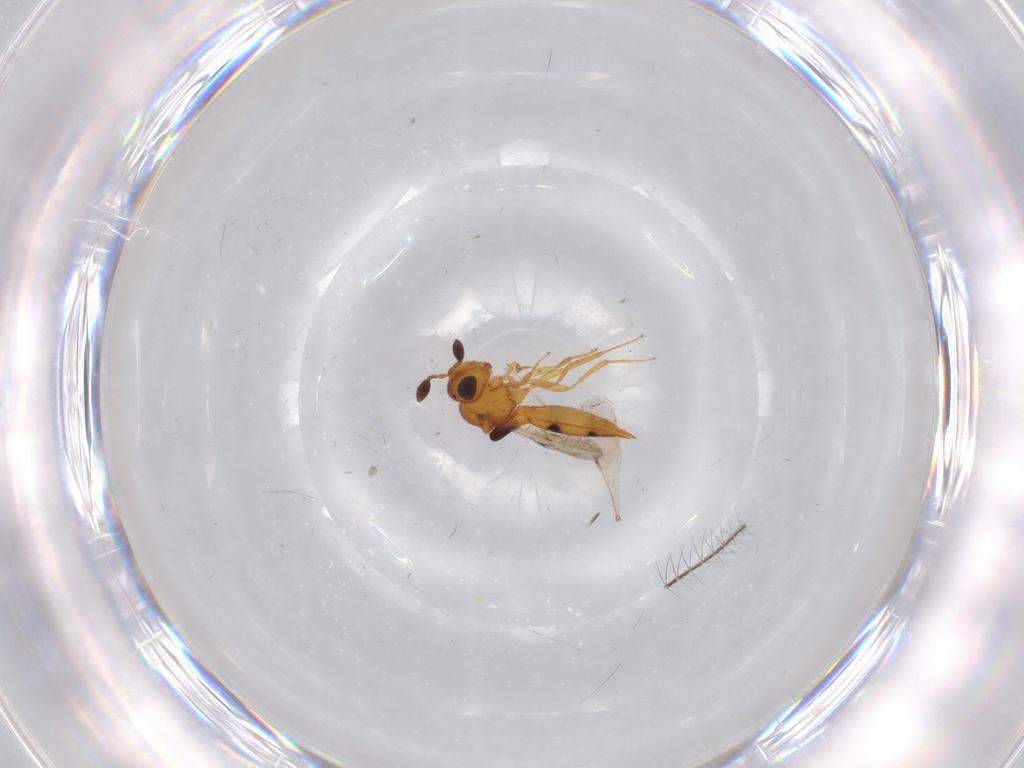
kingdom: Animalia
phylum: Arthropoda
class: Insecta
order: Hymenoptera
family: Scelionidae
